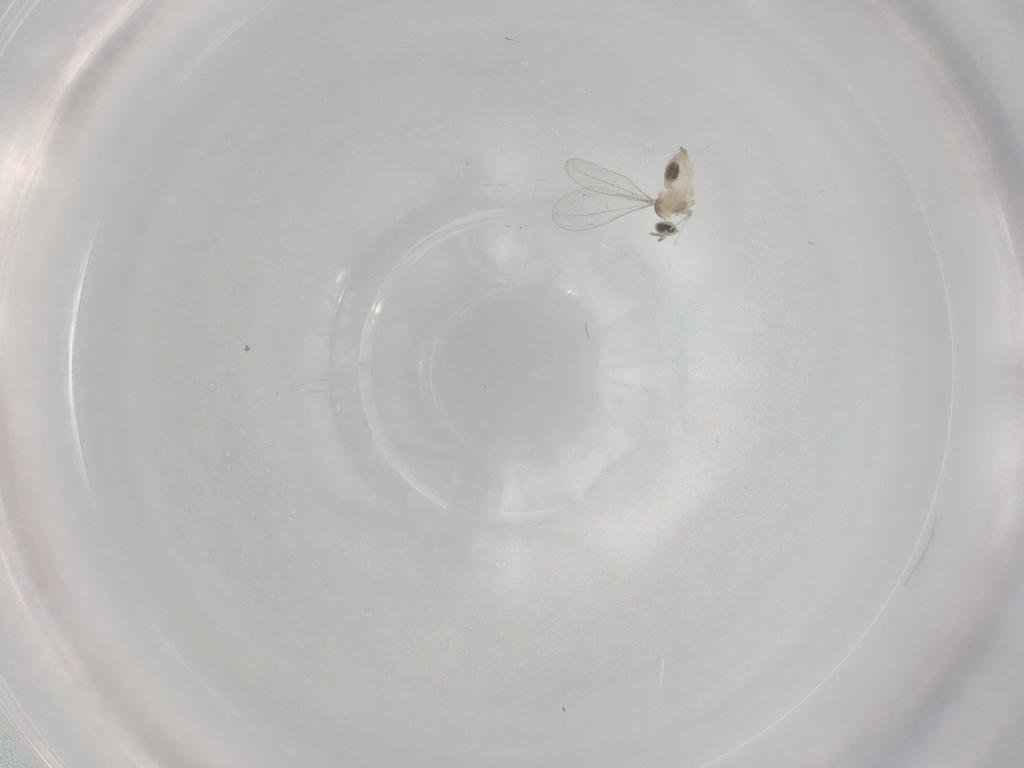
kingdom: Animalia
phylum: Arthropoda
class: Insecta
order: Diptera
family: Cecidomyiidae
